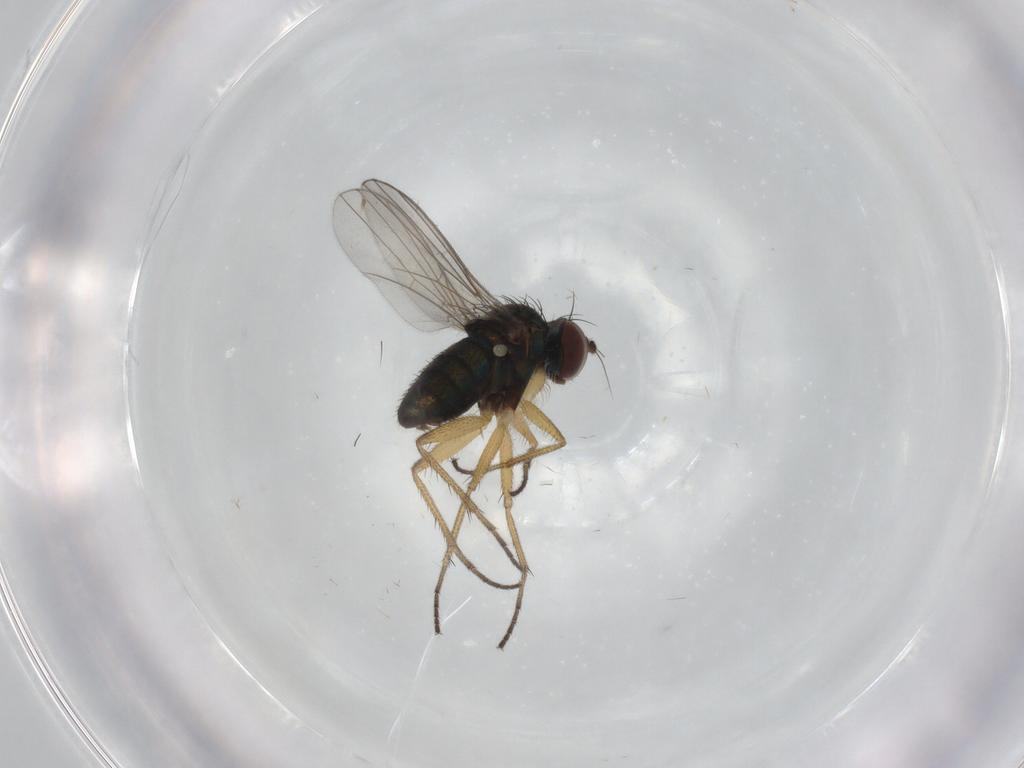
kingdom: Animalia
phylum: Arthropoda
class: Insecta
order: Diptera
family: Dolichopodidae
